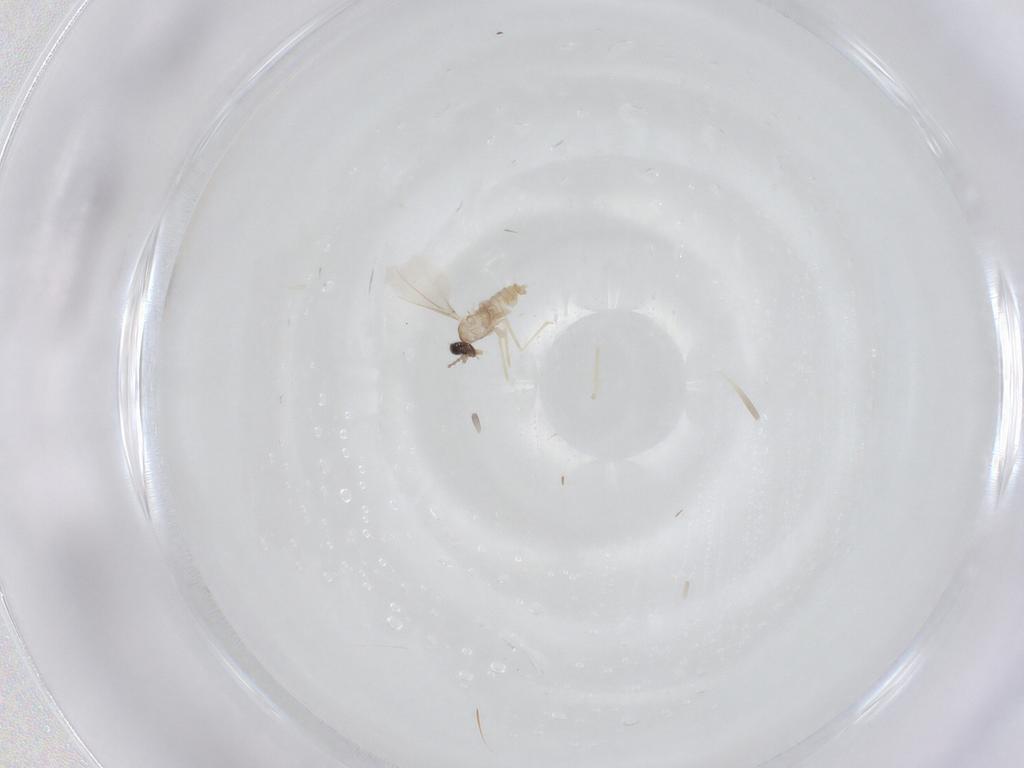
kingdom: Animalia
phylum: Arthropoda
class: Insecta
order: Diptera
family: Cecidomyiidae
